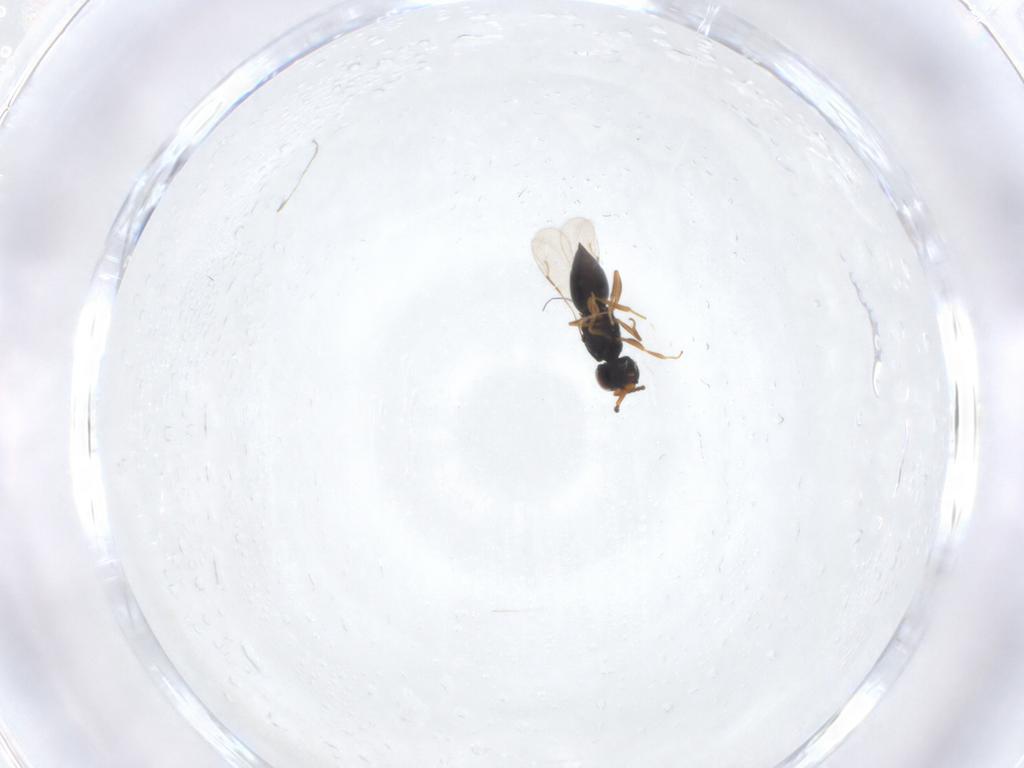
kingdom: Animalia
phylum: Arthropoda
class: Insecta
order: Hymenoptera
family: Ceraphronidae
